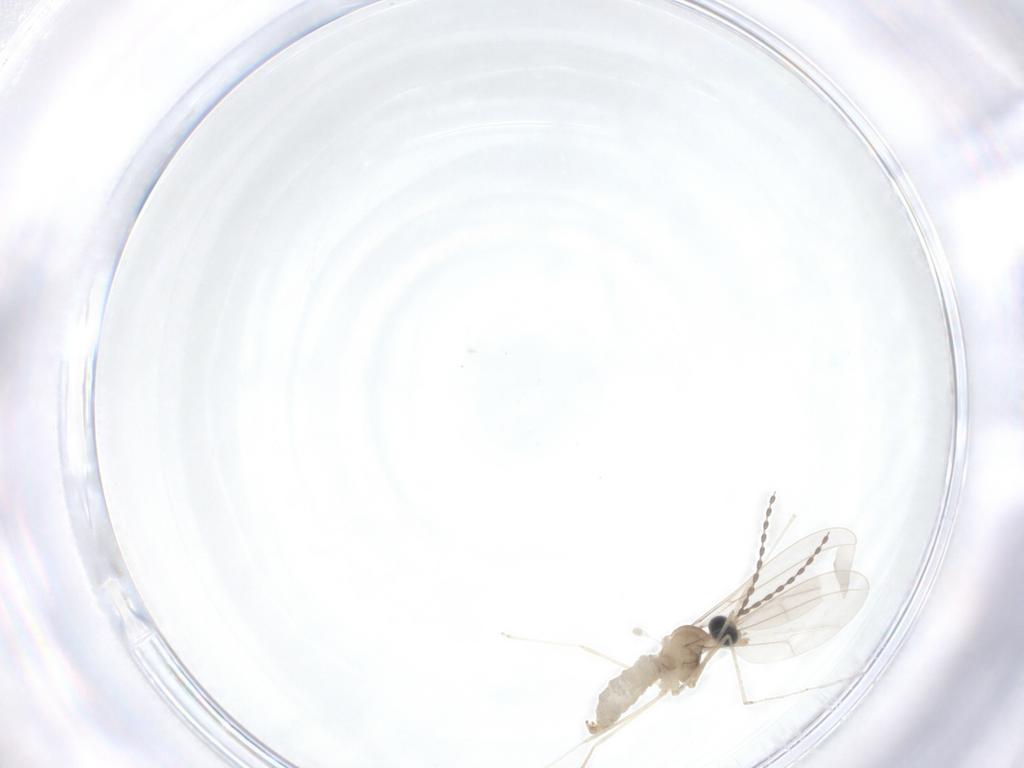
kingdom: Animalia
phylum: Arthropoda
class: Insecta
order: Diptera
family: Cecidomyiidae
